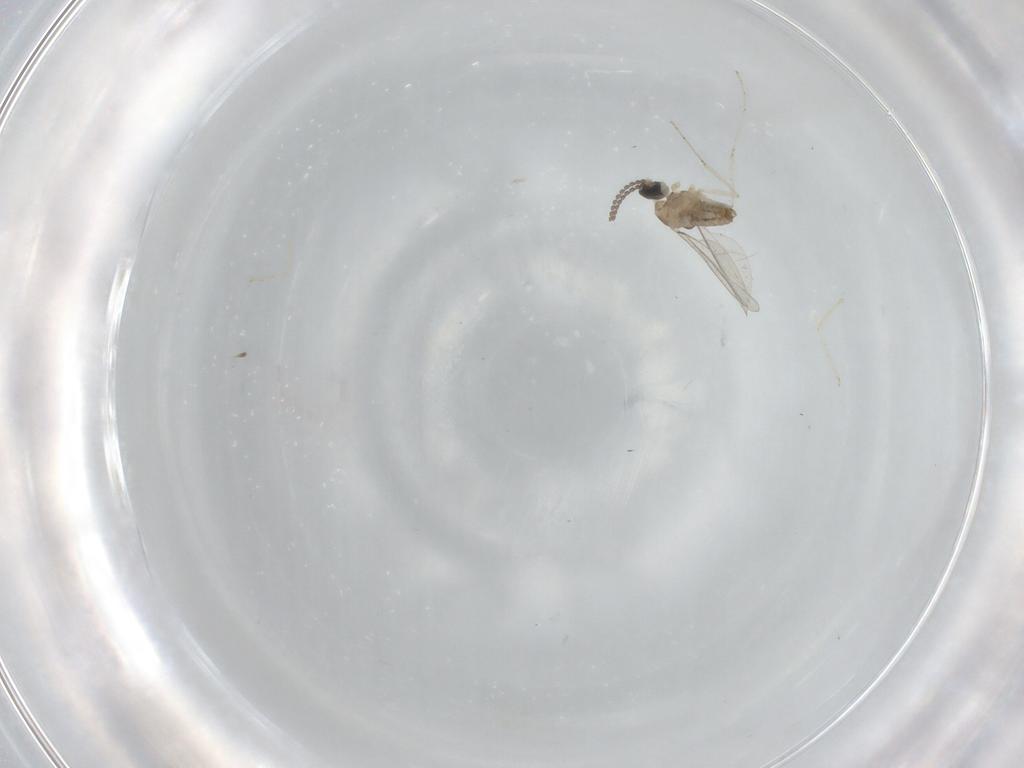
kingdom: Animalia
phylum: Arthropoda
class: Insecta
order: Diptera
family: Cecidomyiidae
